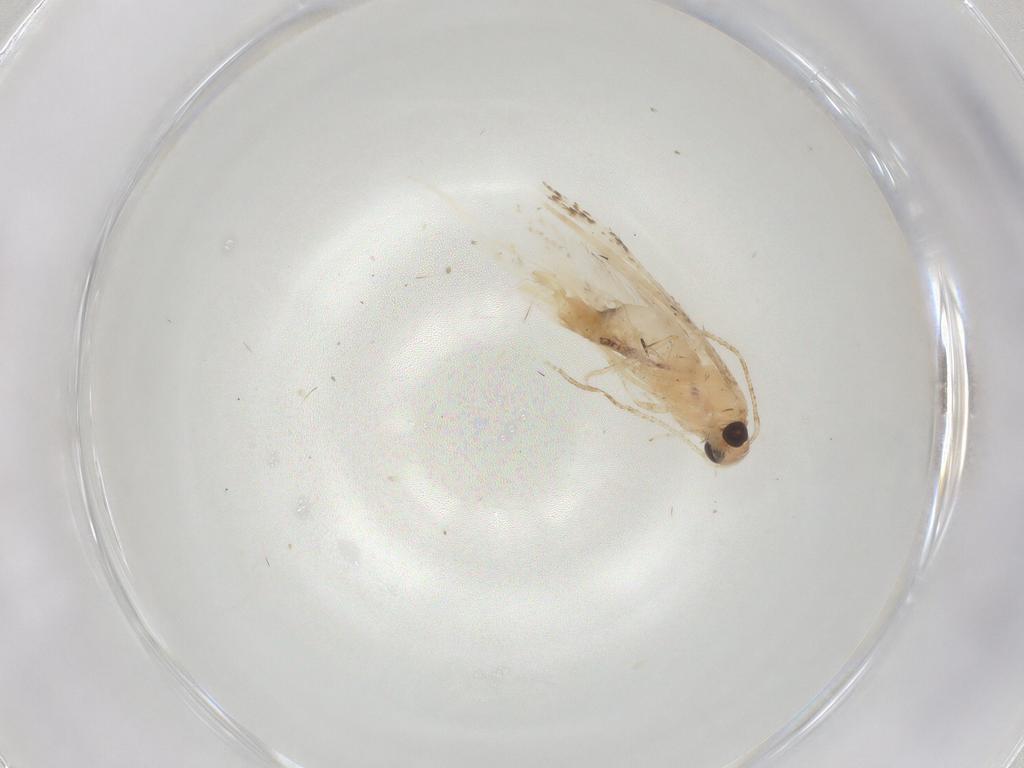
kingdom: Animalia
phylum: Arthropoda
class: Insecta
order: Lepidoptera
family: Gelechiidae
